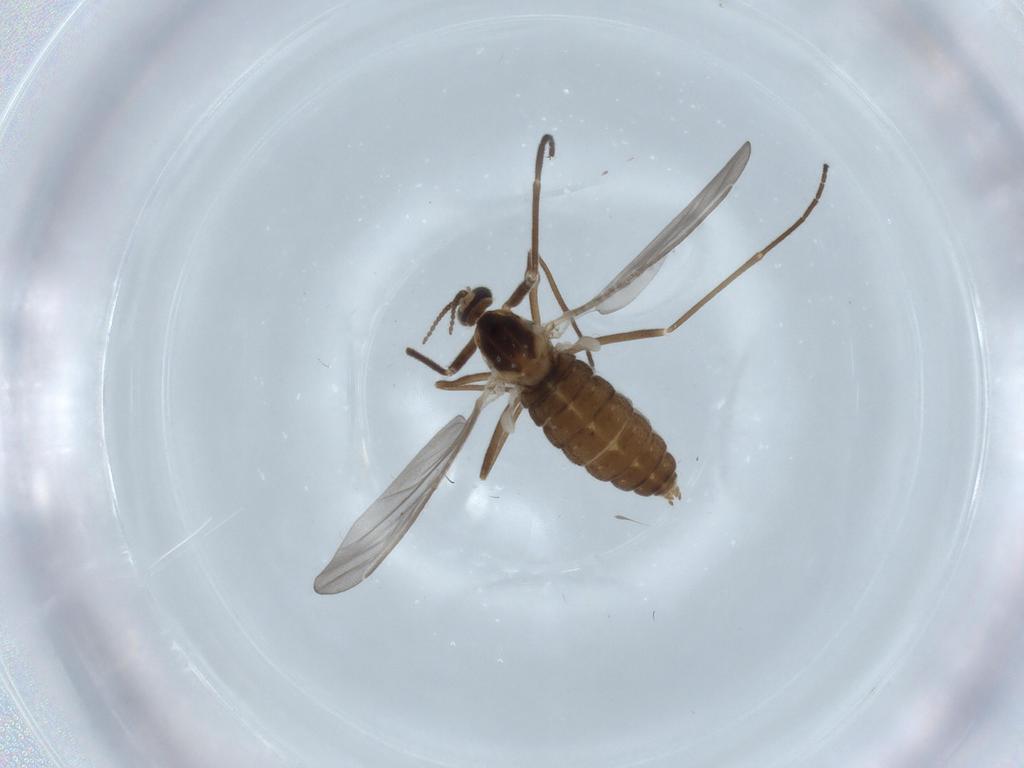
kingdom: Animalia
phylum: Arthropoda
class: Insecta
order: Diptera
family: Cecidomyiidae
